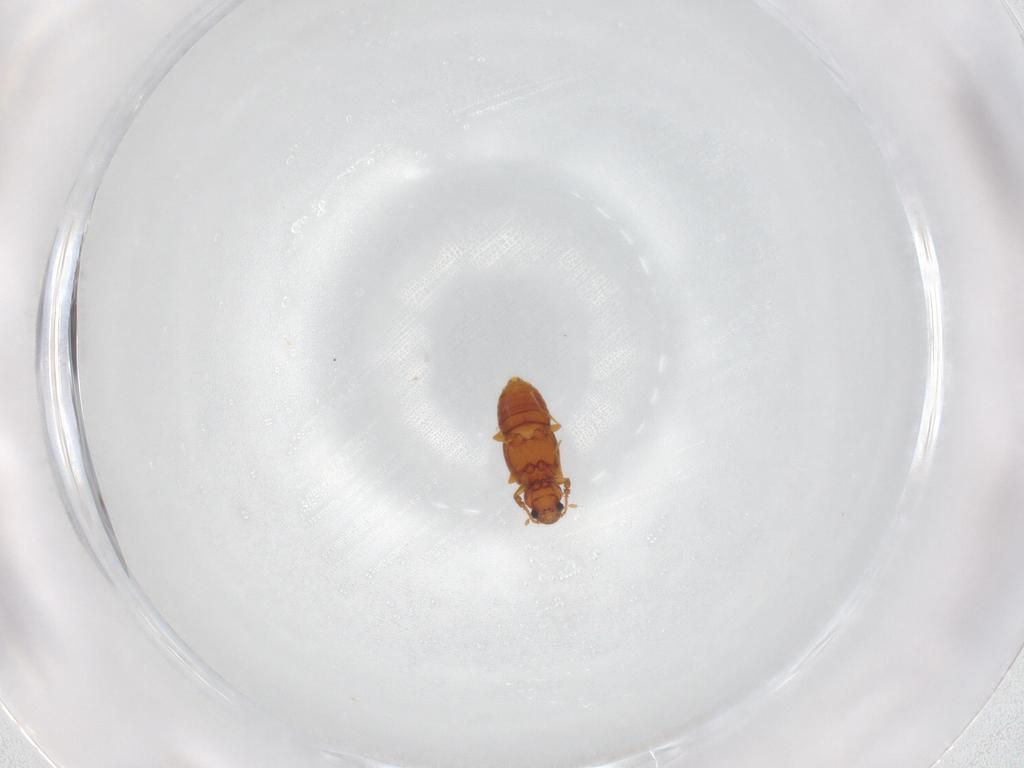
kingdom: Animalia
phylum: Arthropoda
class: Insecta
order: Coleoptera
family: Staphylinidae
